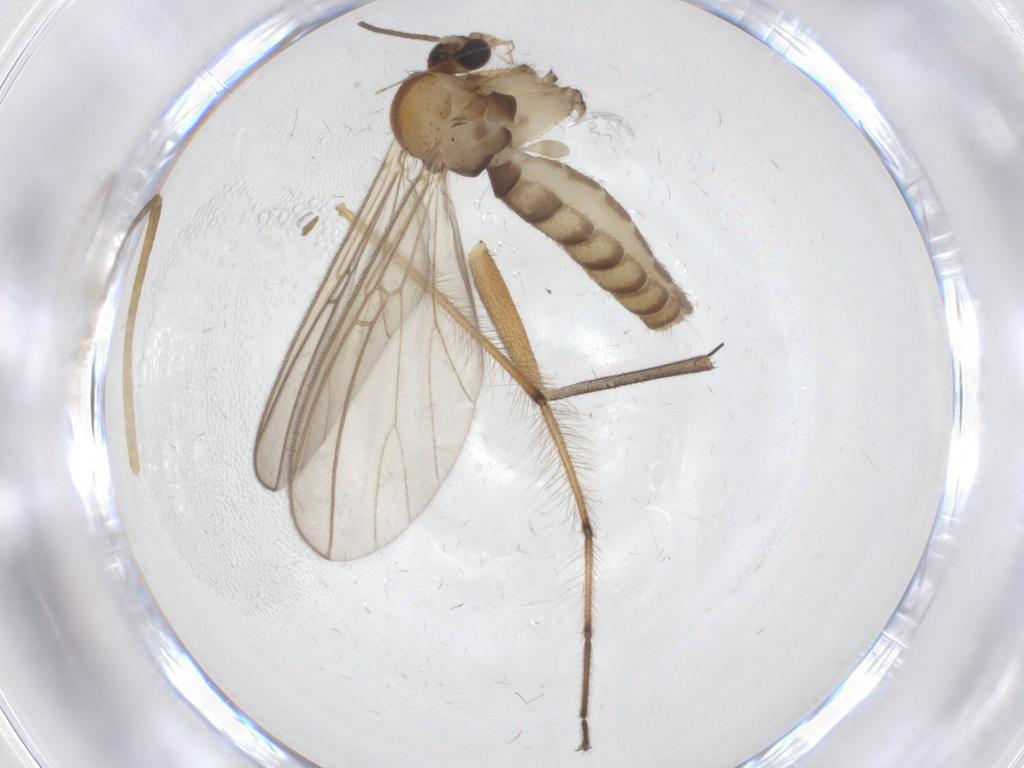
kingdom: Animalia
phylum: Arthropoda
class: Insecta
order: Diptera
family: Mycetophilidae
